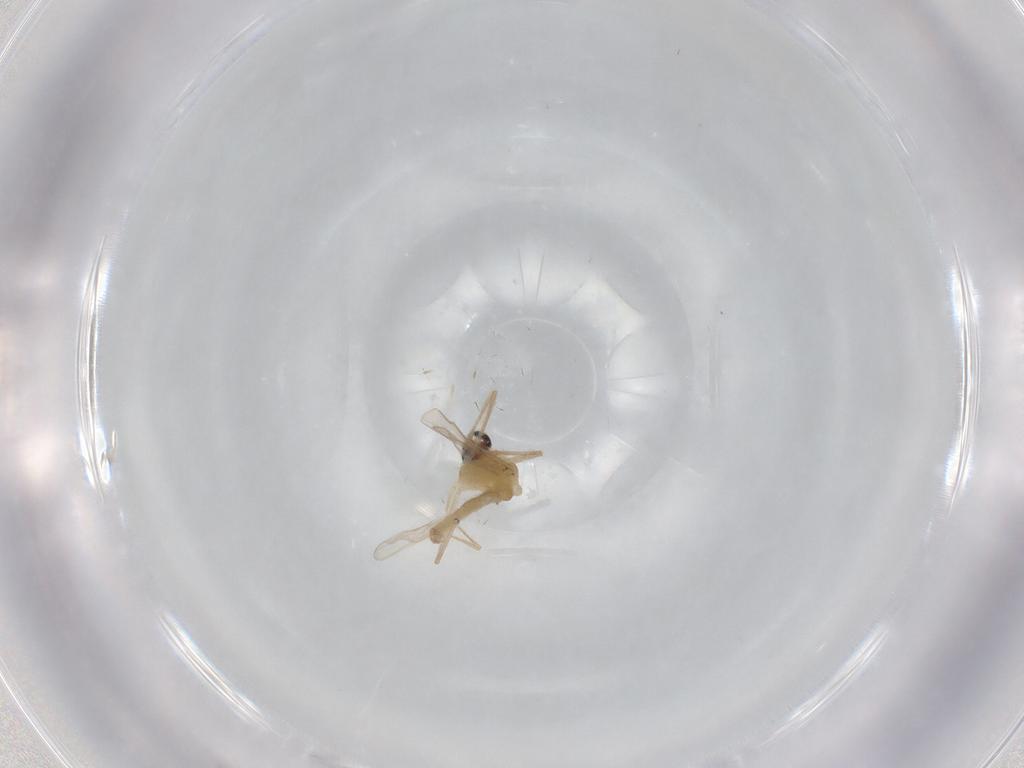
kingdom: Animalia
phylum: Arthropoda
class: Insecta
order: Diptera
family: Chironomidae
